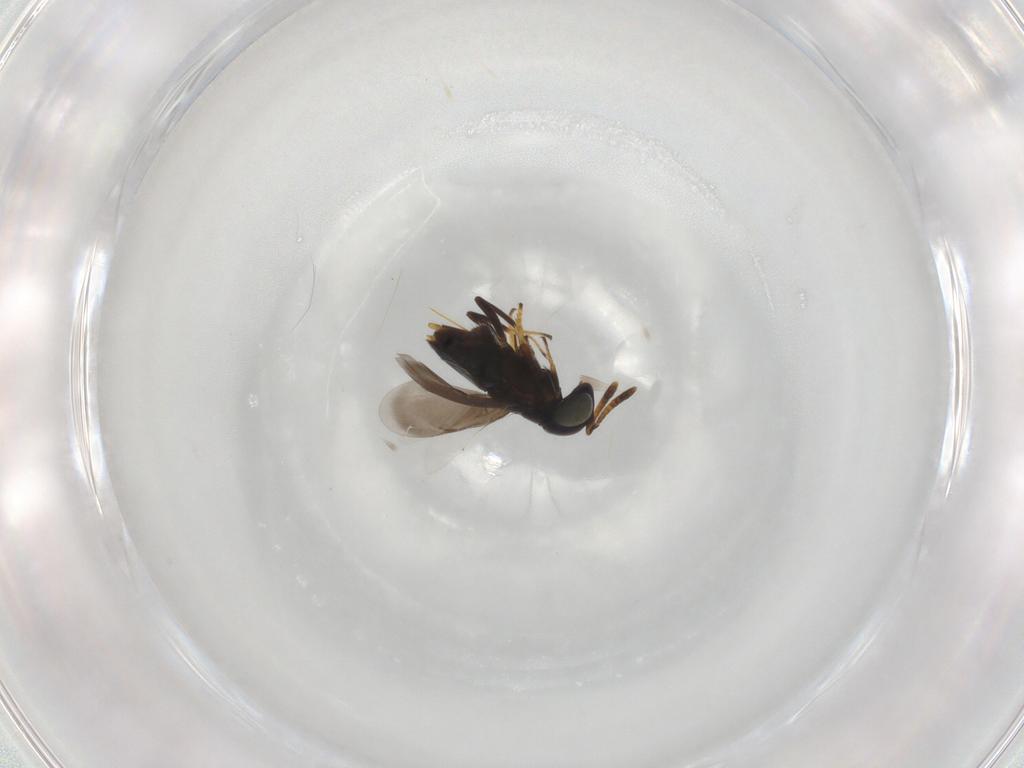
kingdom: Animalia
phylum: Arthropoda
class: Insecta
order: Hymenoptera
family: Encyrtidae
